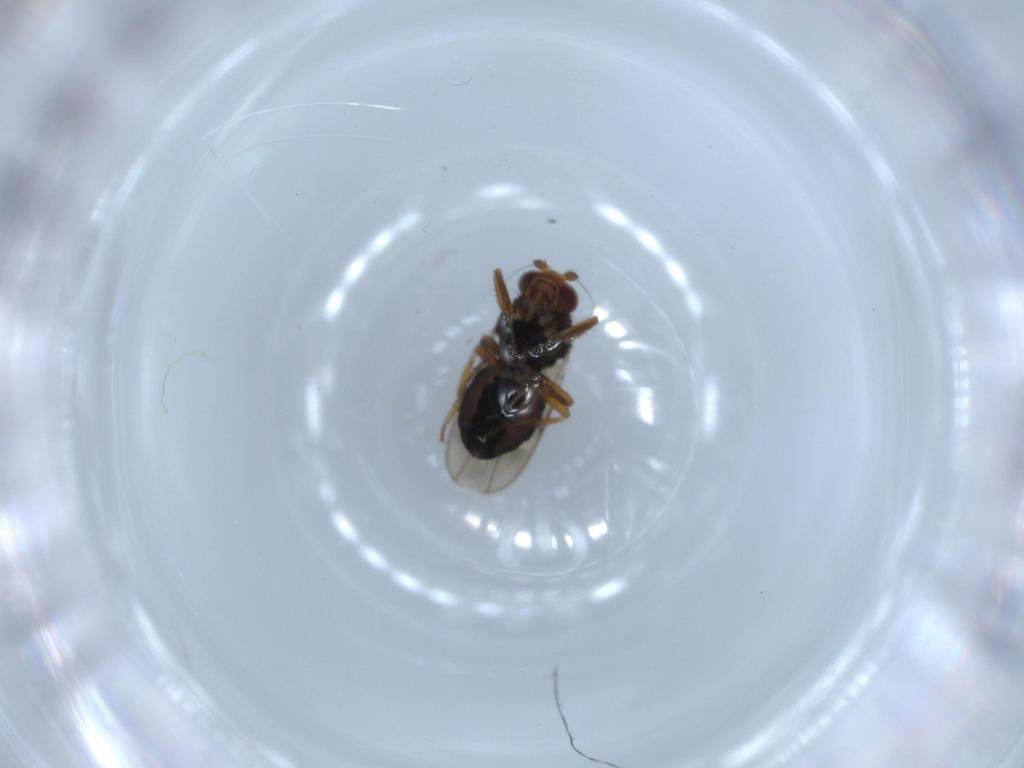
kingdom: Animalia
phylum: Arthropoda
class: Insecta
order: Diptera
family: Sphaeroceridae
